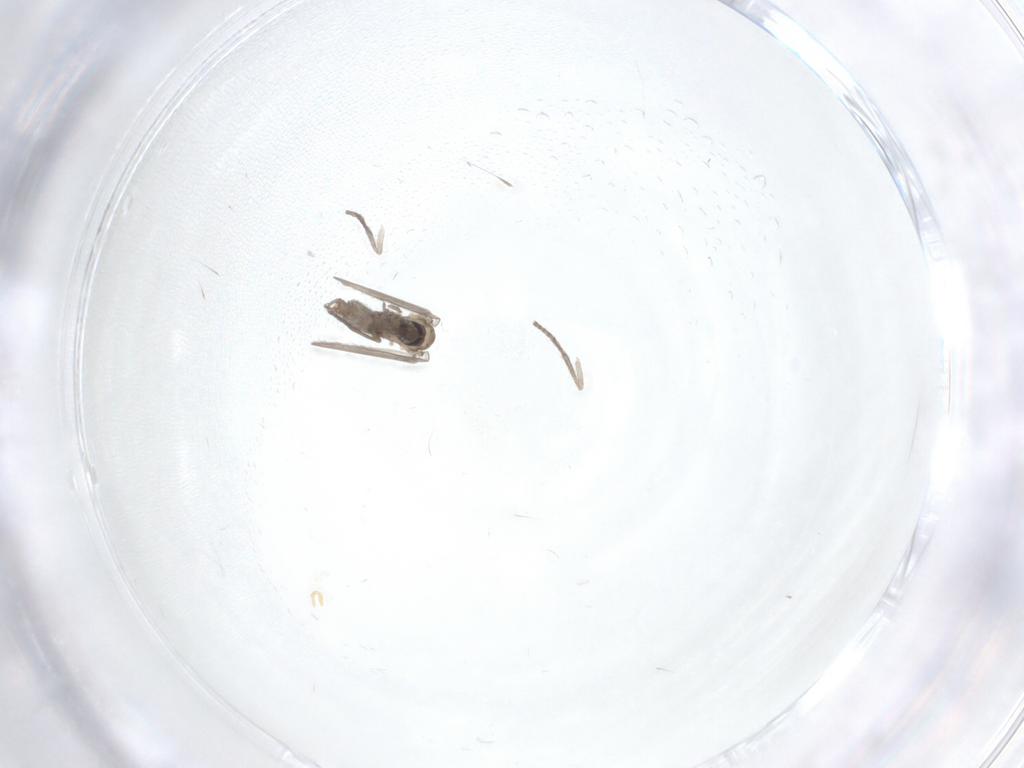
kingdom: Animalia
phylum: Arthropoda
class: Insecta
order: Diptera
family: Psychodidae
